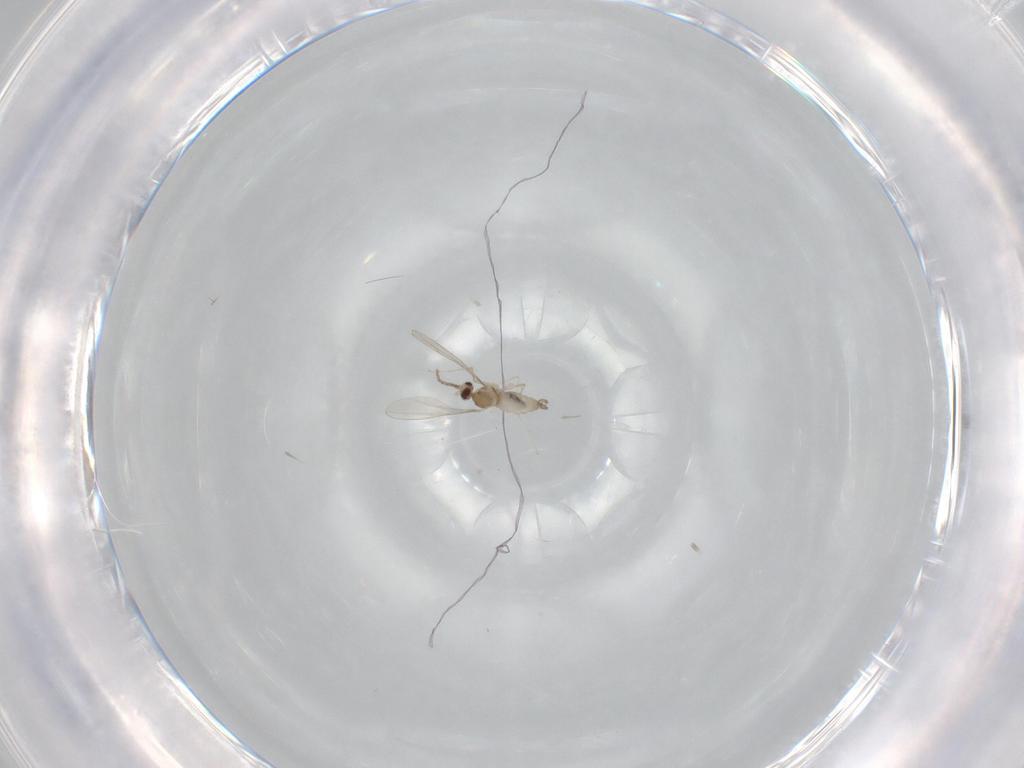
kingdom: Animalia
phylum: Arthropoda
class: Insecta
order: Diptera
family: Cecidomyiidae
